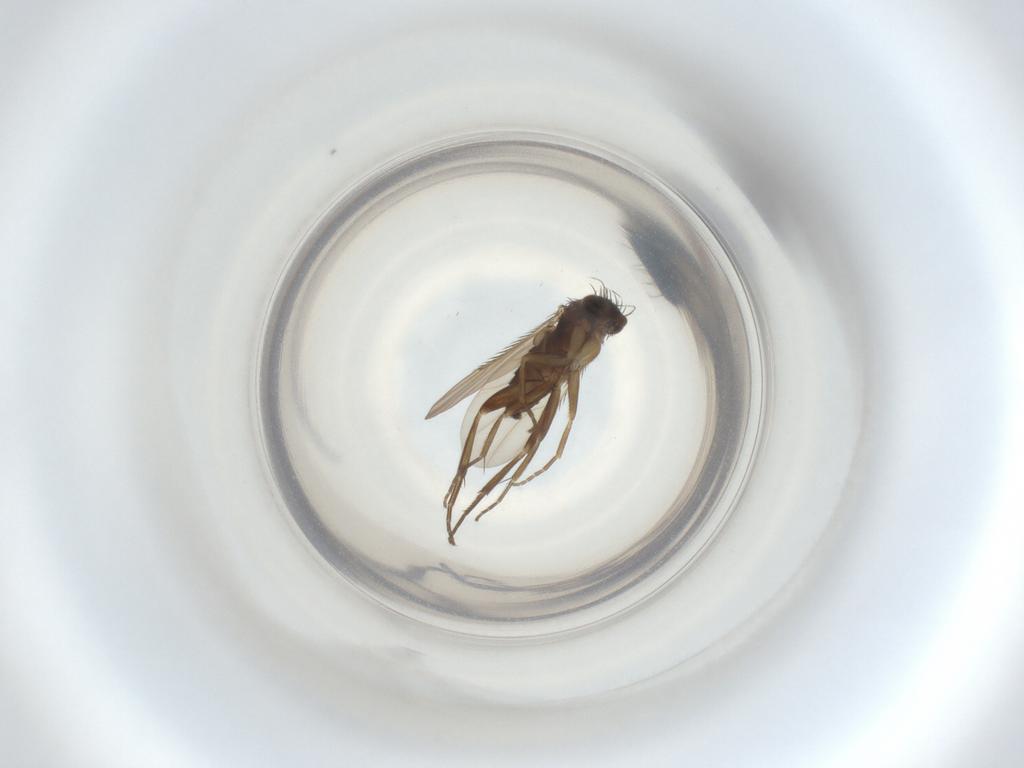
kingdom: Animalia
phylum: Arthropoda
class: Insecta
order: Diptera
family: Phoridae
